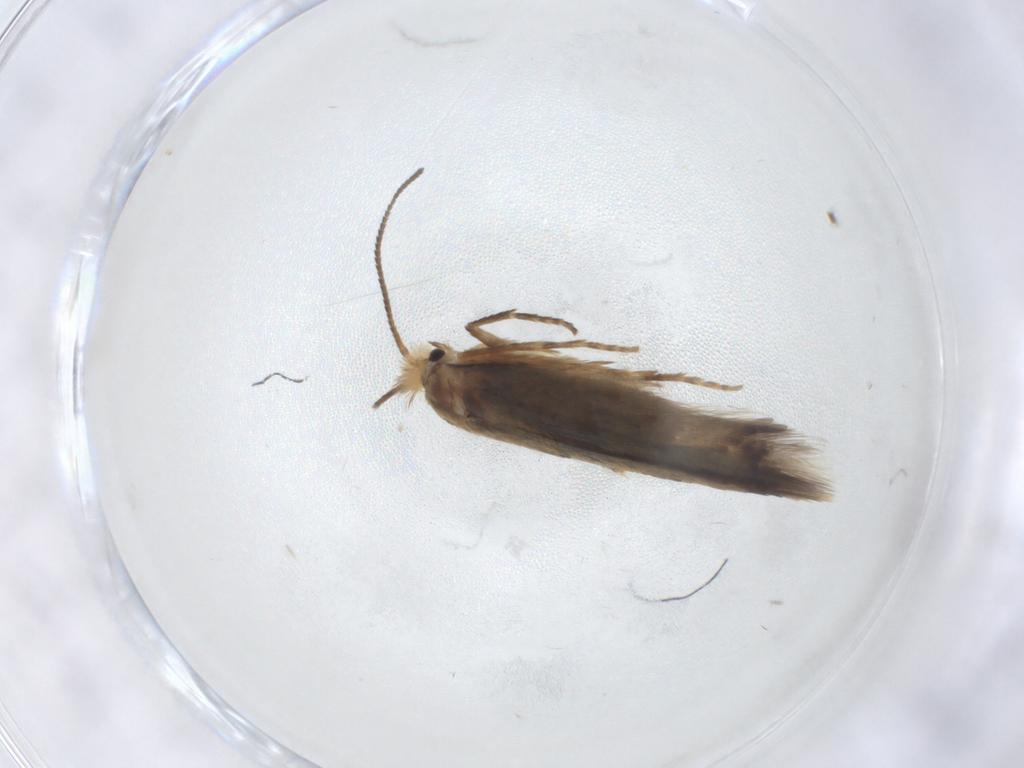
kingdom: Animalia
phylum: Arthropoda
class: Insecta
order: Lepidoptera
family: Nepticulidae
